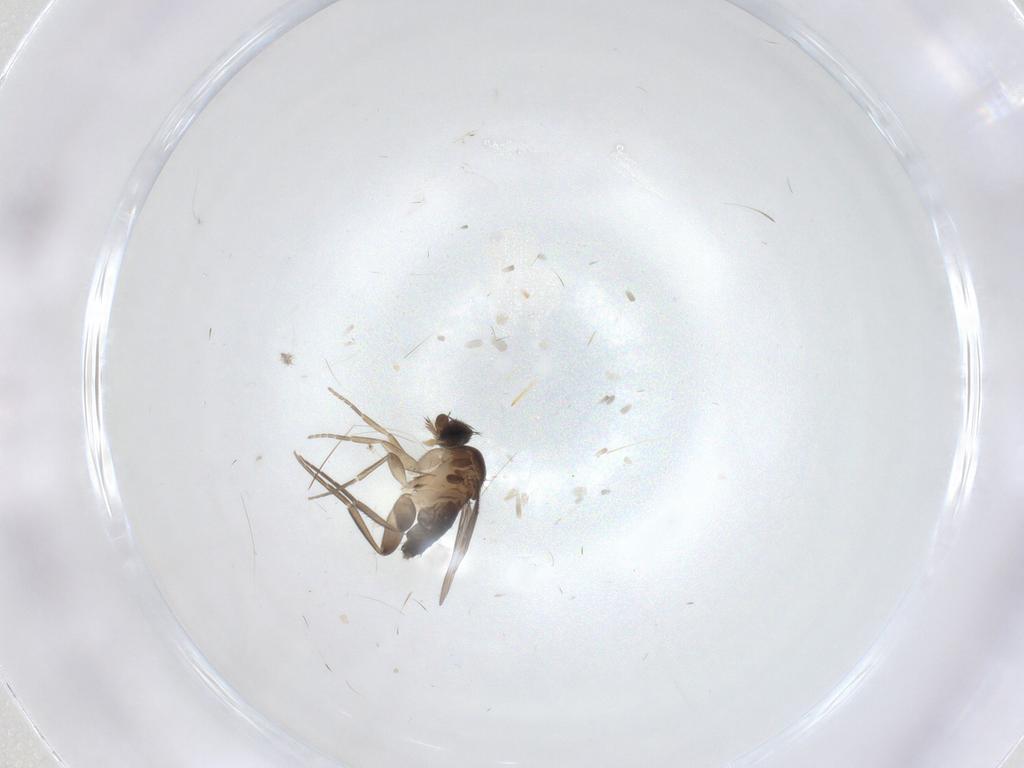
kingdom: Animalia
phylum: Arthropoda
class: Insecta
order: Diptera
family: Phoridae
